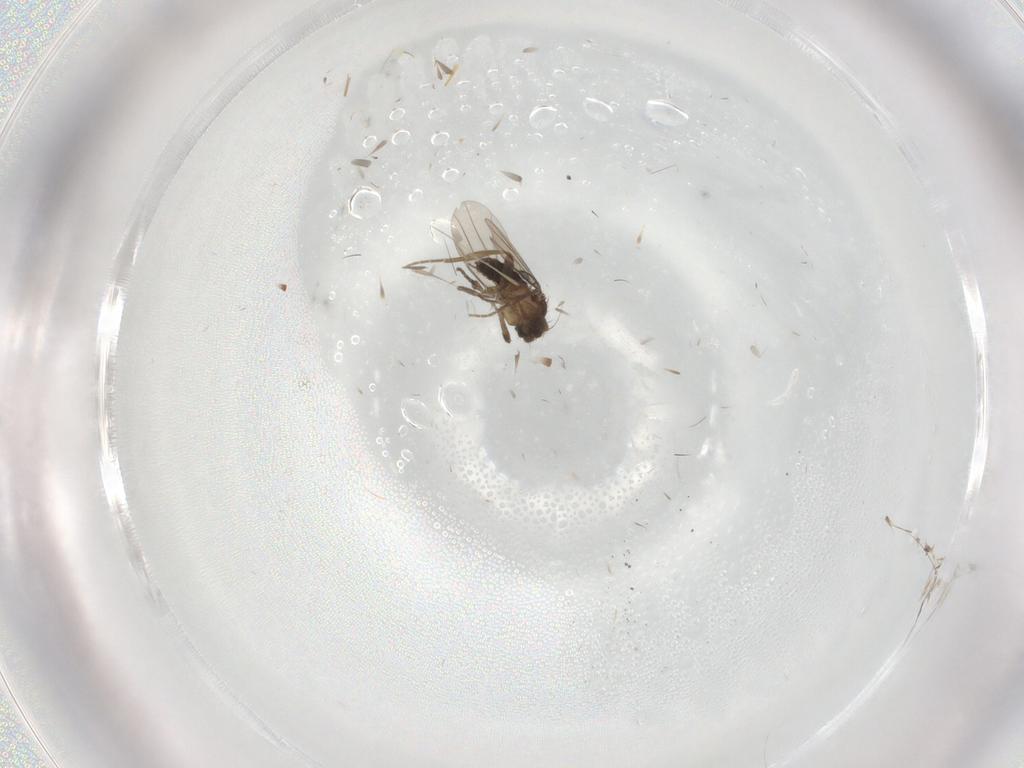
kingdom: Animalia
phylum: Arthropoda
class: Insecta
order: Diptera
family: Phoridae
